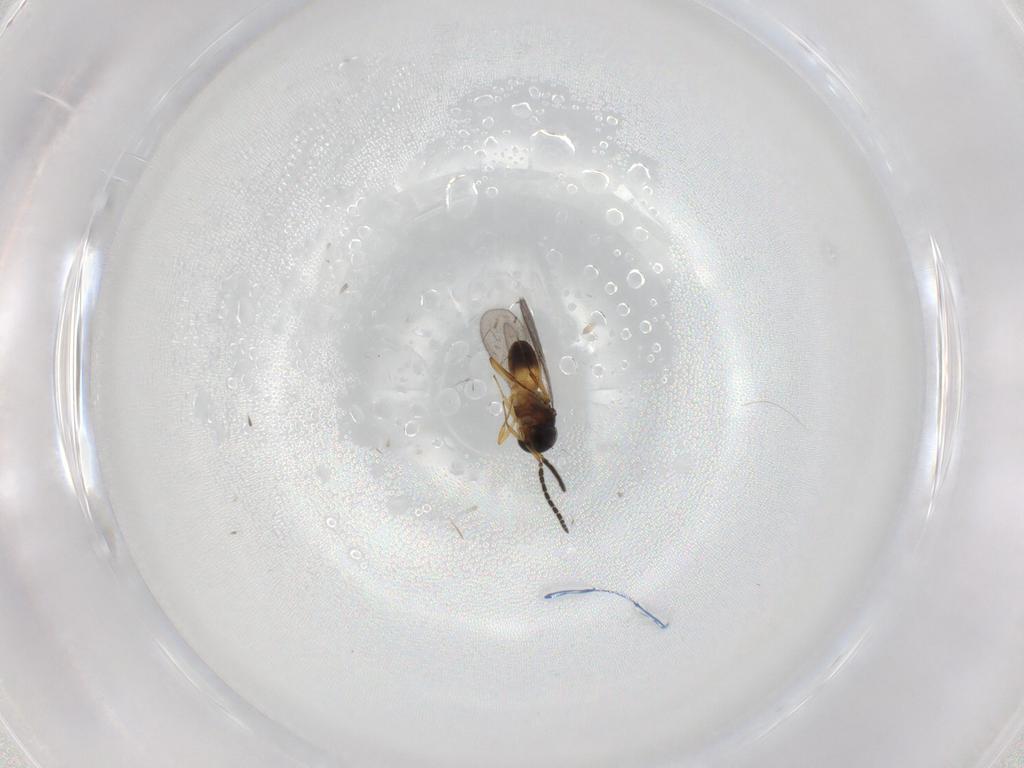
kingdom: Animalia
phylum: Arthropoda
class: Insecta
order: Hymenoptera
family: Scelionidae
